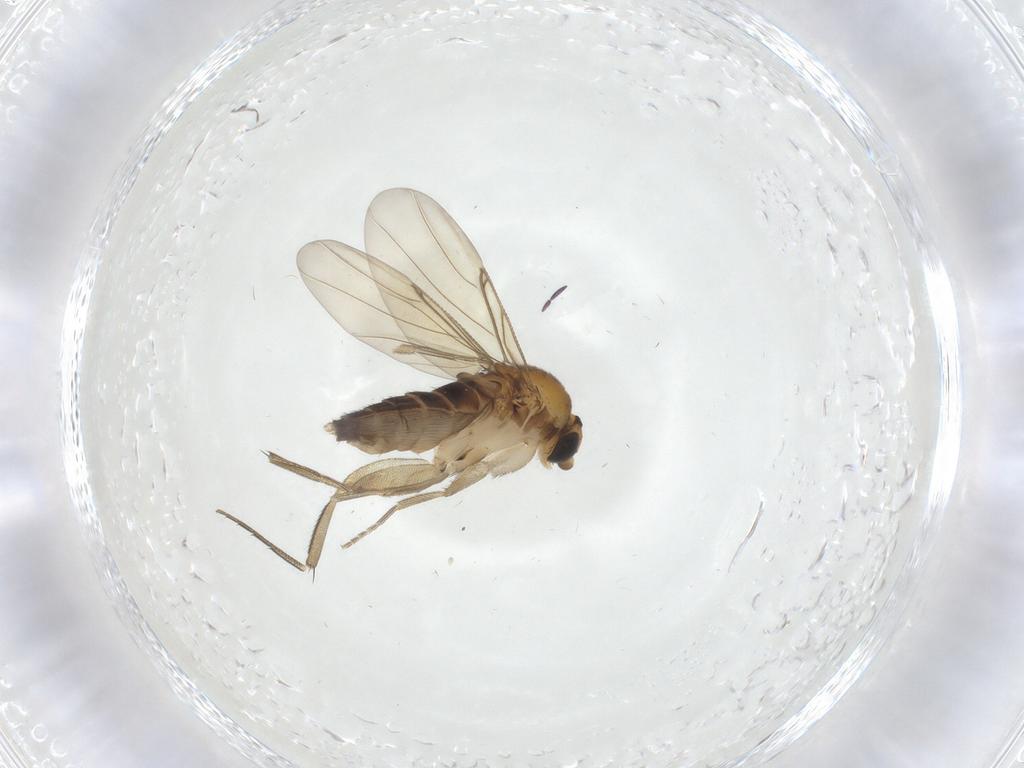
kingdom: Animalia
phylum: Arthropoda
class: Insecta
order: Diptera
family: Phoridae
